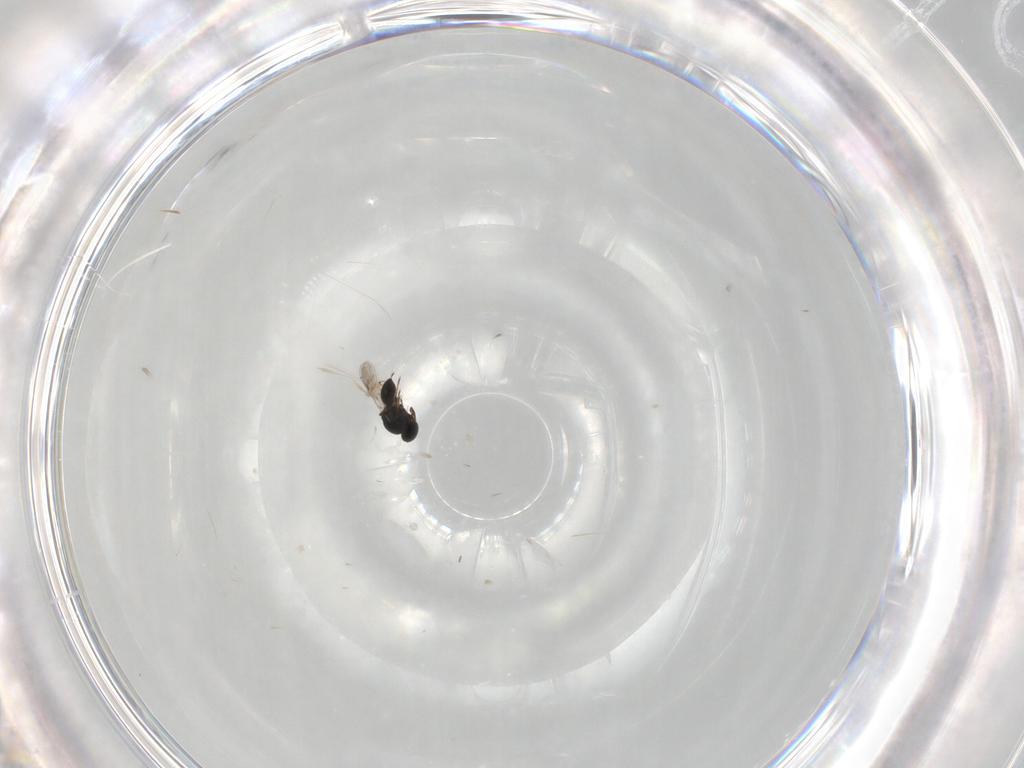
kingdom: Animalia
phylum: Arthropoda
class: Insecta
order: Hymenoptera
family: Platygastridae
